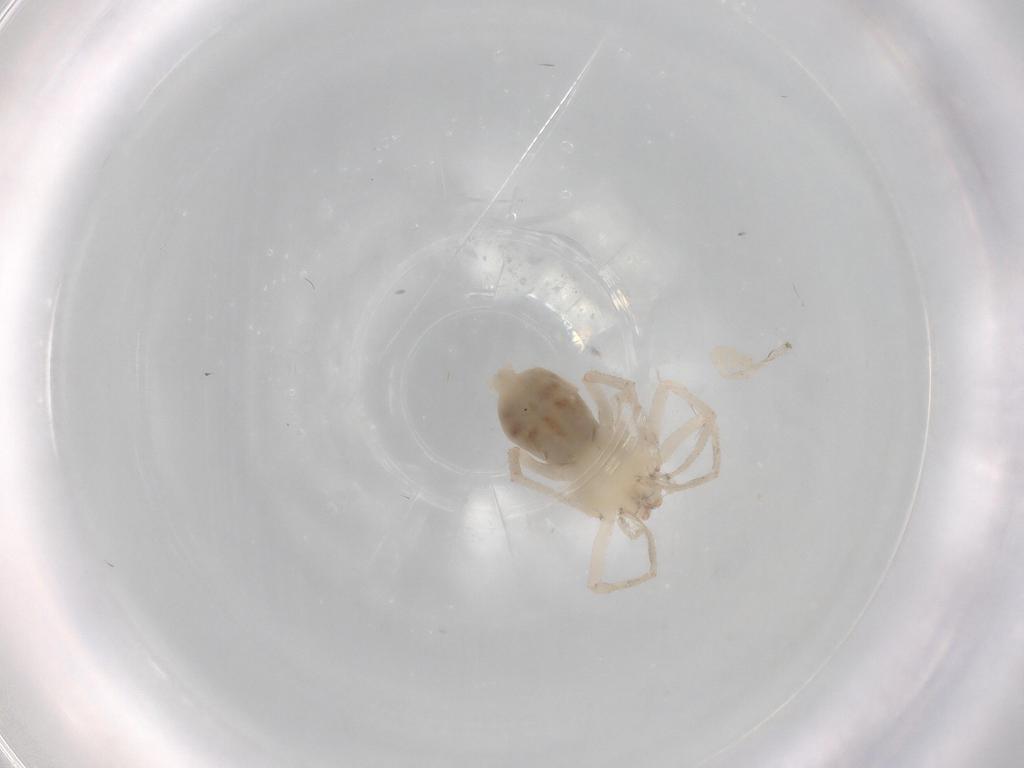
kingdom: Animalia
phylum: Arthropoda
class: Arachnida
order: Araneae
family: Anyphaenidae
